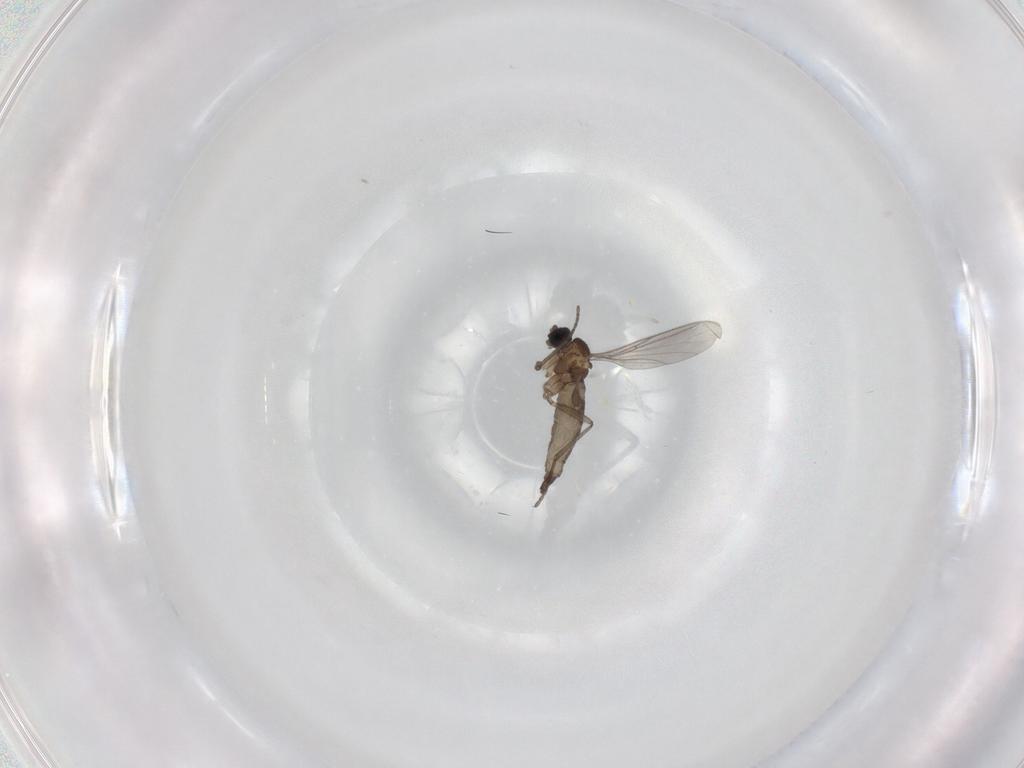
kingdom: Animalia
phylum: Arthropoda
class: Insecta
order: Diptera
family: Sciaridae
